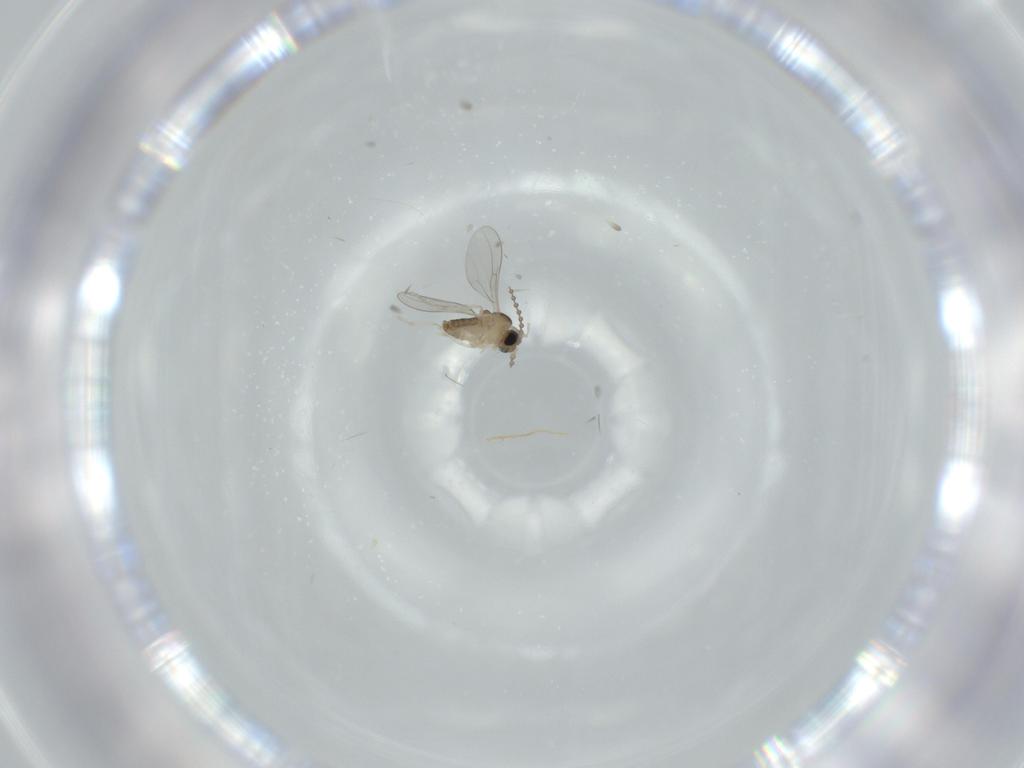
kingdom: Animalia
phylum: Arthropoda
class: Insecta
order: Diptera
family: Cecidomyiidae
